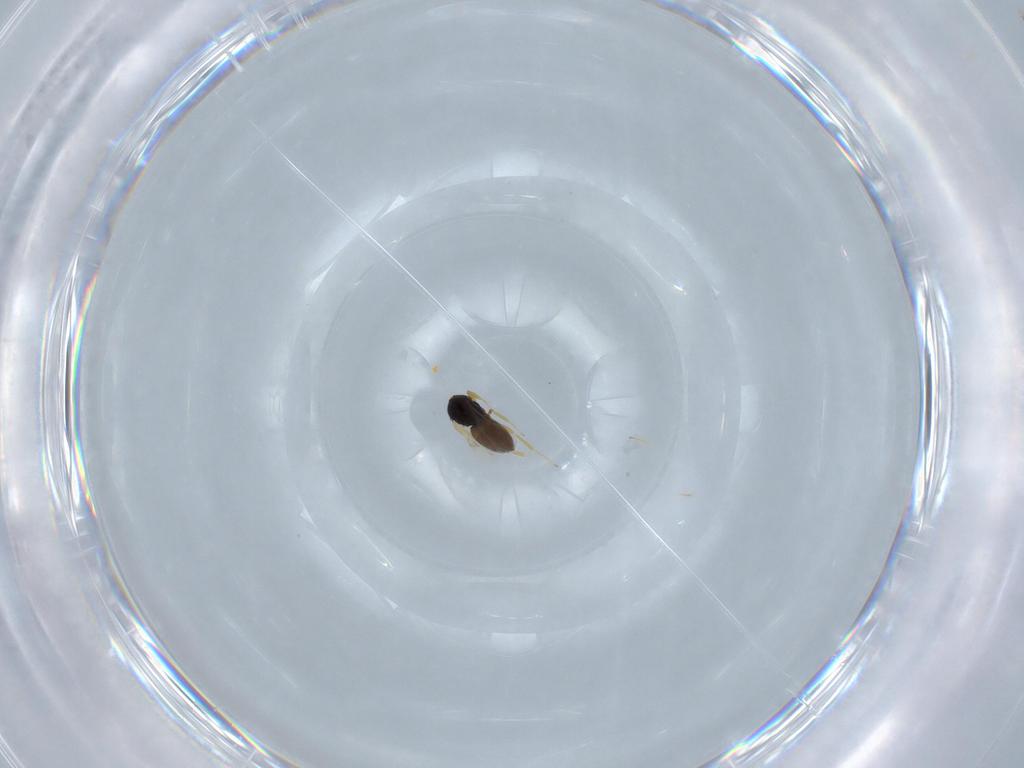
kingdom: Animalia
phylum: Arthropoda
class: Insecta
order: Hymenoptera
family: Scelionidae
